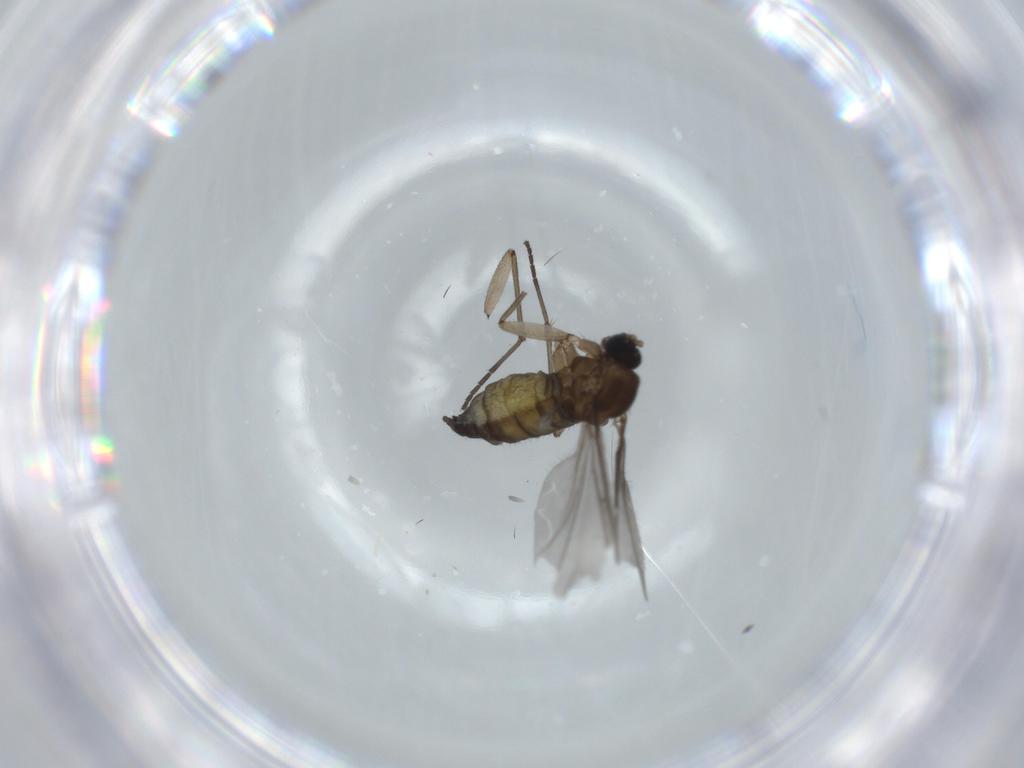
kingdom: Animalia
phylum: Arthropoda
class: Insecta
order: Diptera
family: Sciaridae
